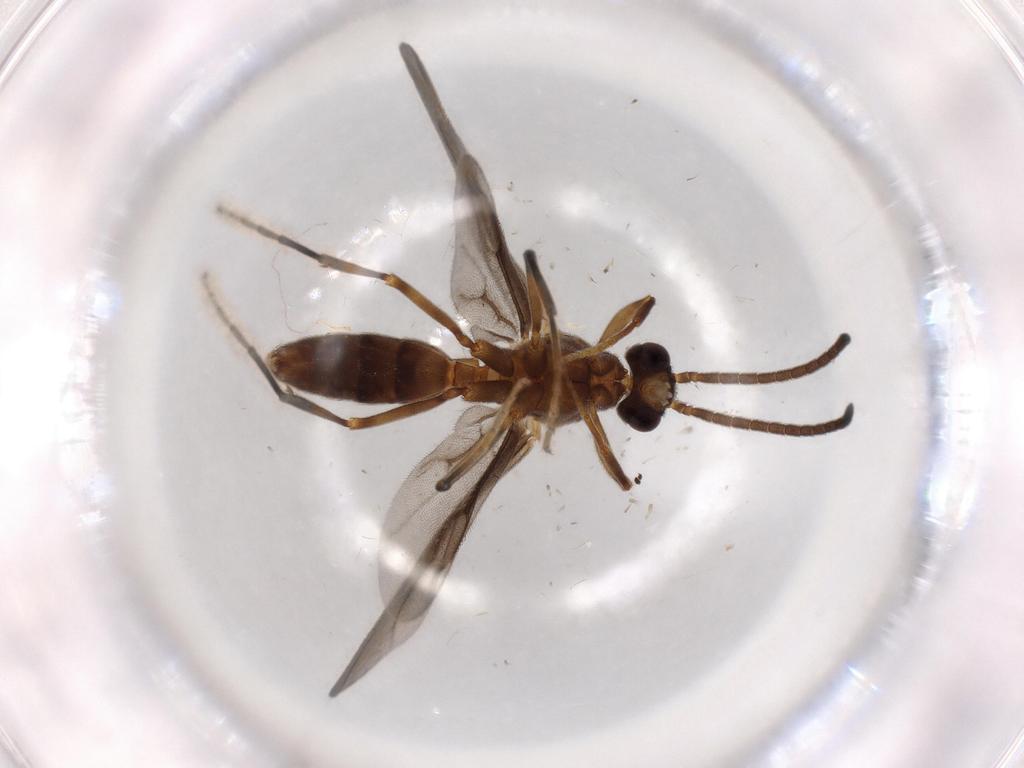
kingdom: Animalia
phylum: Arthropoda
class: Insecta
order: Hymenoptera
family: Formicidae
